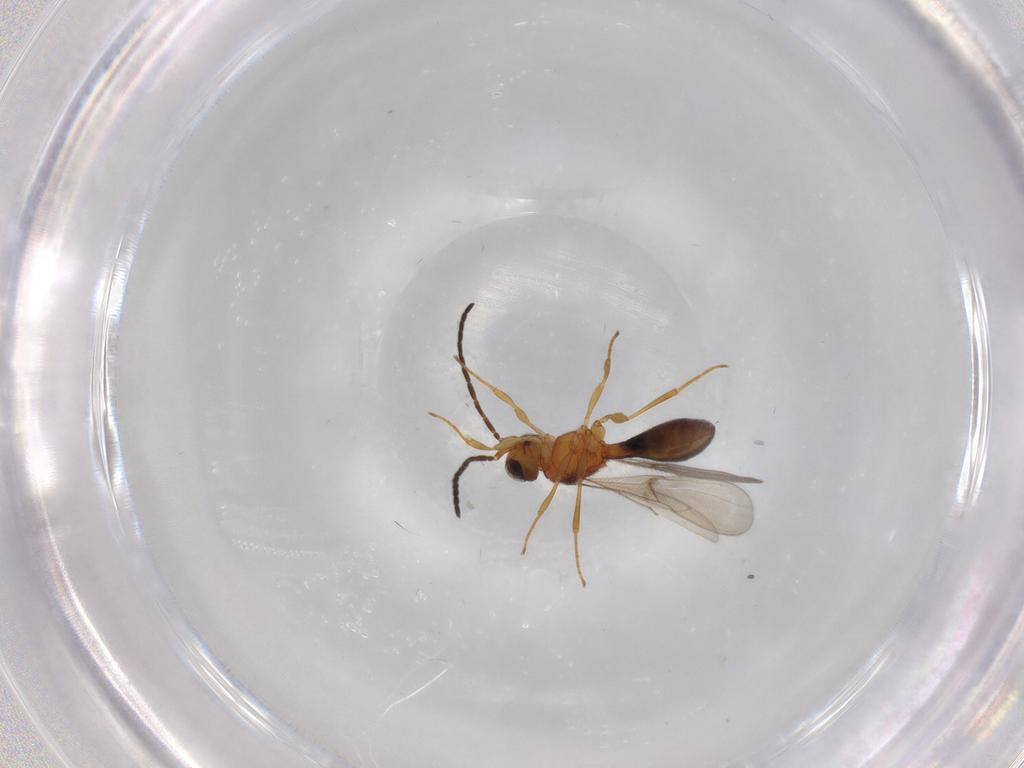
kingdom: Animalia
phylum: Arthropoda
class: Insecta
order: Hymenoptera
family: Scelionidae
